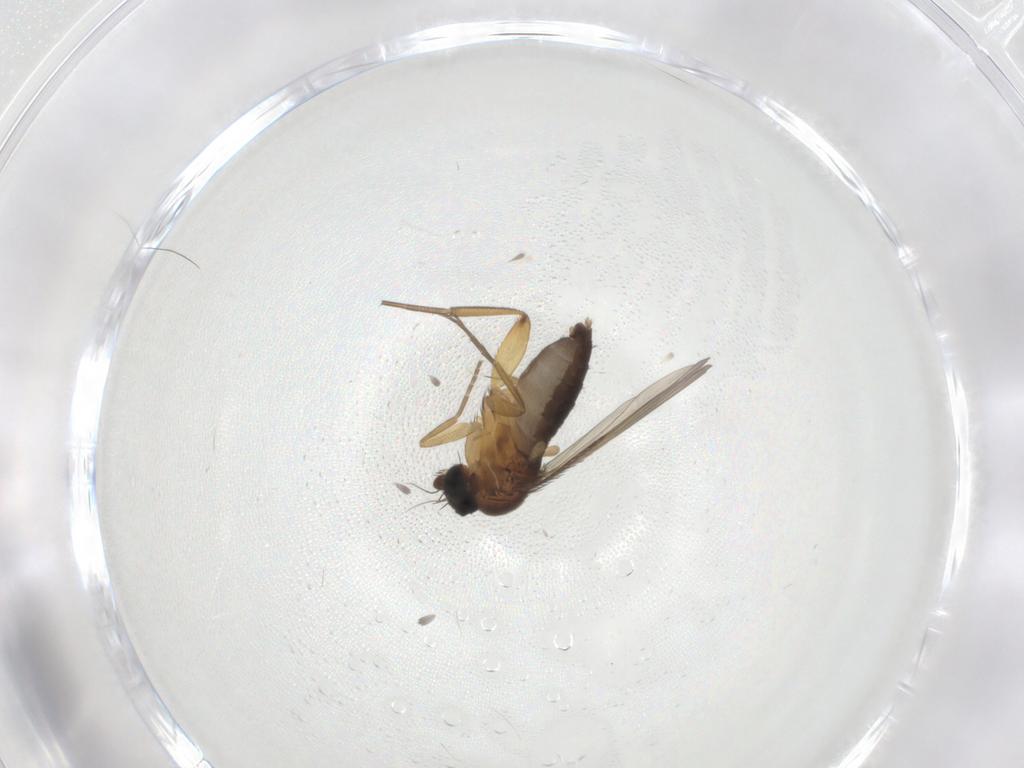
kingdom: Animalia
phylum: Arthropoda
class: Insecta
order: Diptera
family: Phoridae
